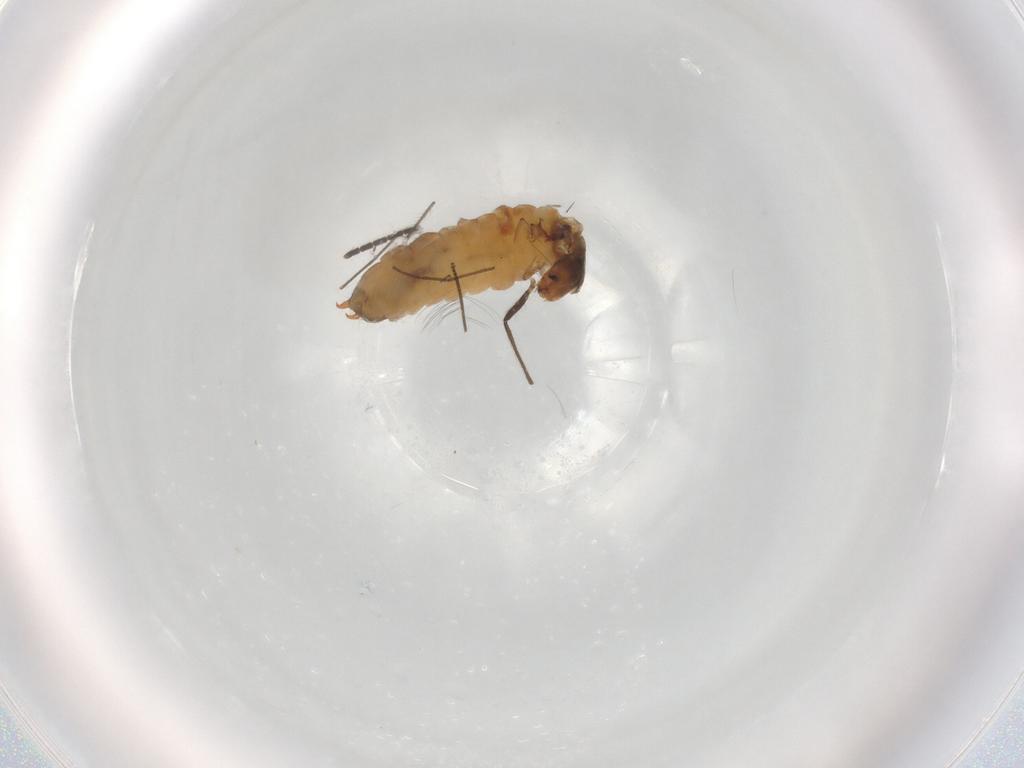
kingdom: Animalia
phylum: Arthropoda
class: Insecta
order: Coleoptera
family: Melyridae
